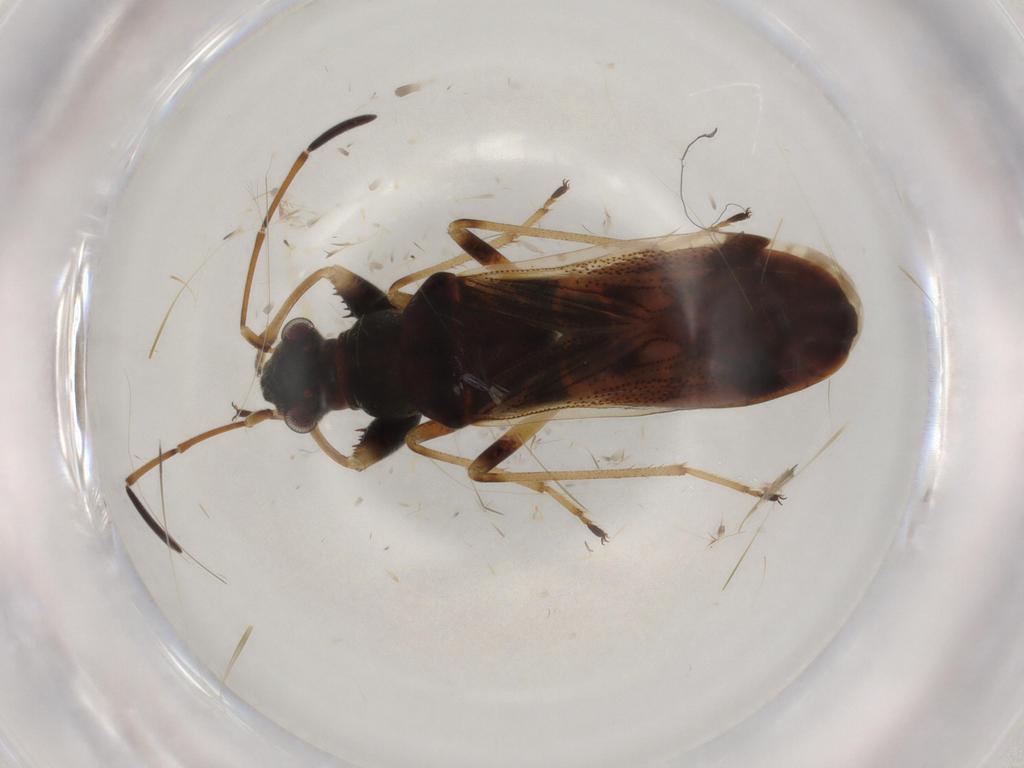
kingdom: Animalia
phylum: Arthropoda
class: Insecta
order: Hemiptera
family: Rhyparochromidae
